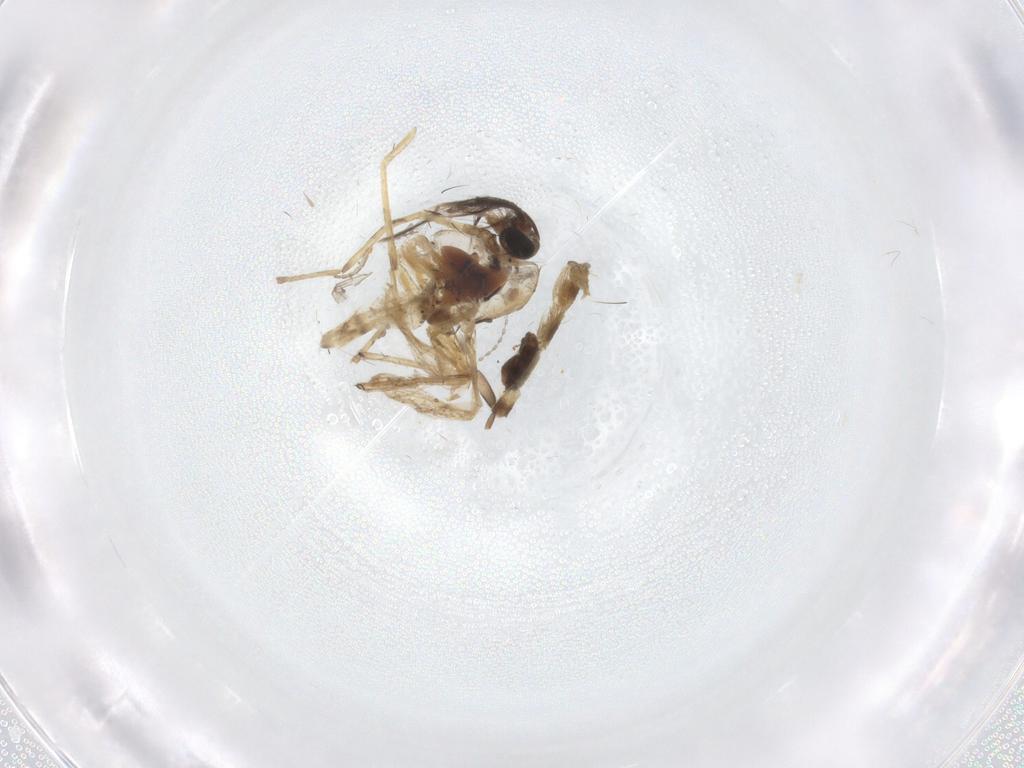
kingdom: Animalia
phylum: Arthropoda
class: Insecta
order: Diptera
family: Chironomidae
